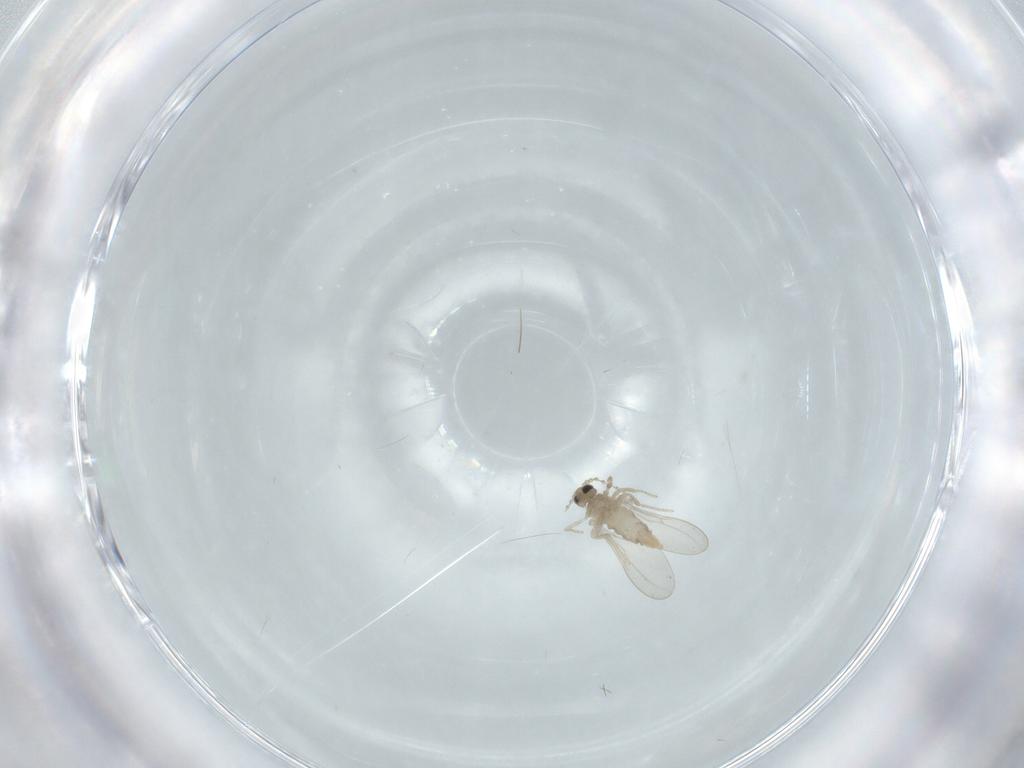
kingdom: Animalia
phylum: Arthropoda
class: Insecta
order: Diptera
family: Cecidomyiidae
